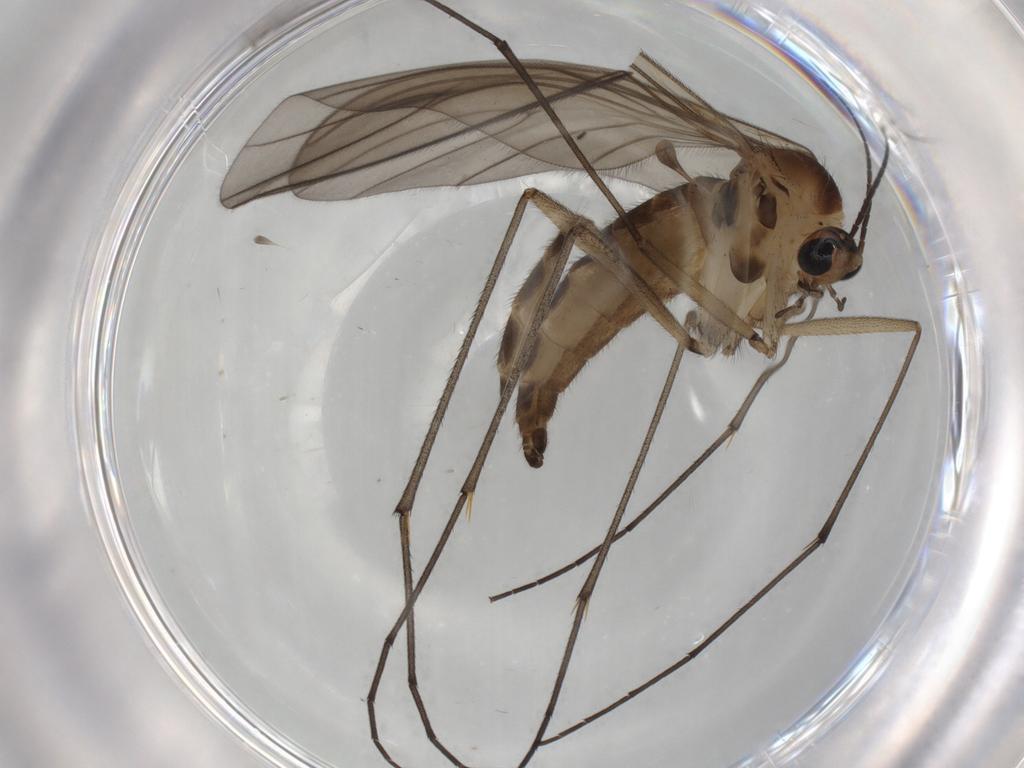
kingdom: Animalia
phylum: Arthropoda
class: Insecta
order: Diptera
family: Sciaridae
